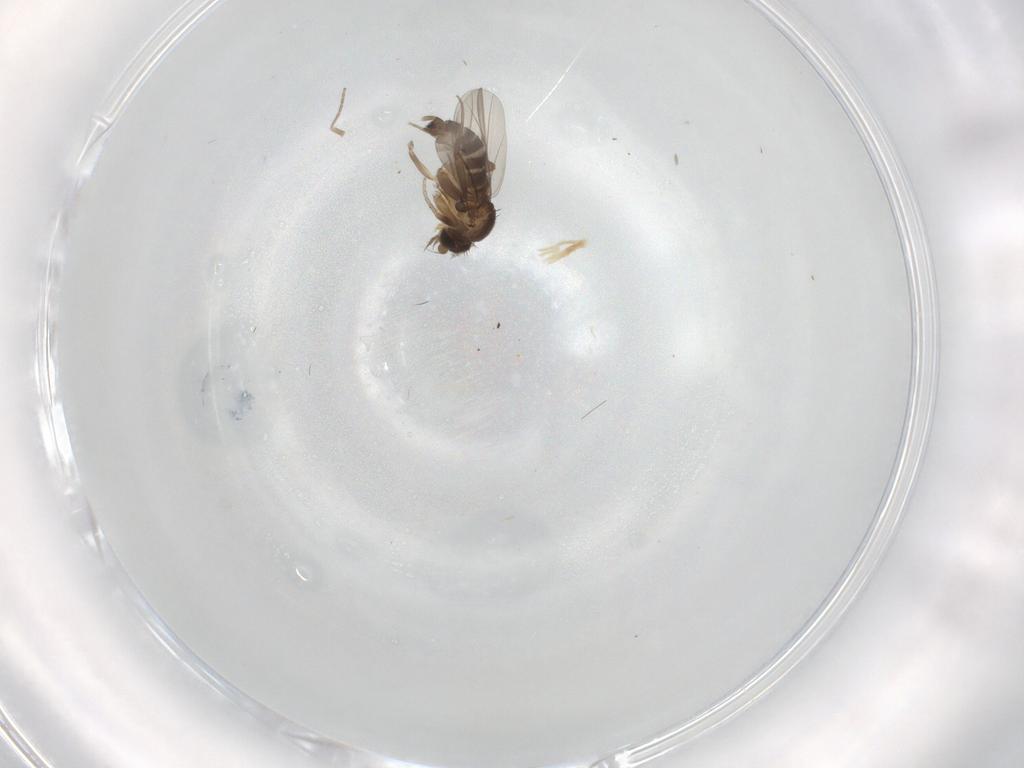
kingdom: Animalia
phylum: Arthropoda
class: Insecta
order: Diptera
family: Phoridae
